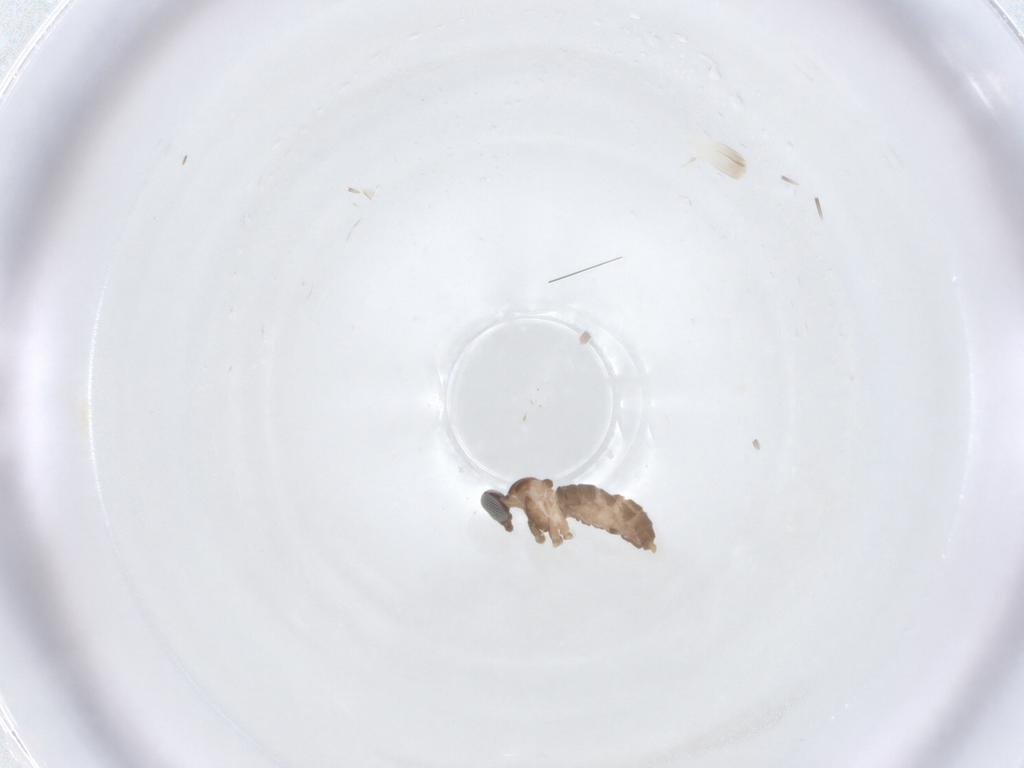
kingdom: Animalia
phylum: Arthropoda
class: Insecta
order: Diptera
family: Cecidomyiidae
